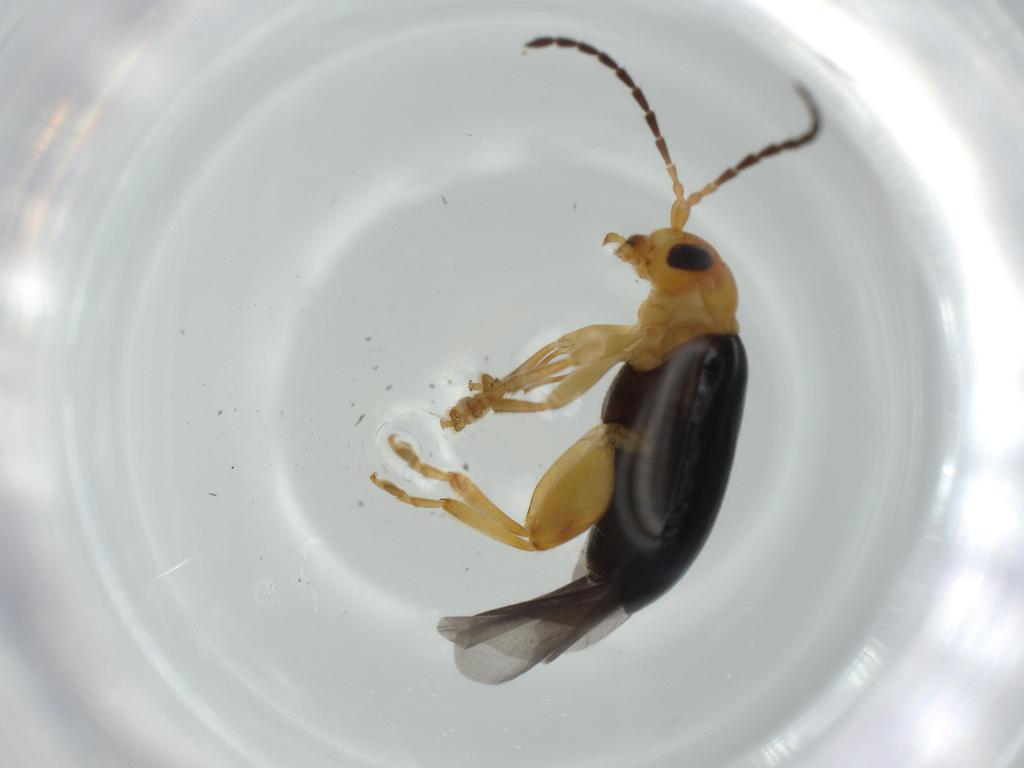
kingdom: Animalia
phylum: Arthropoda
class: Insecta
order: Coleoptera
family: Chrysomelidae
